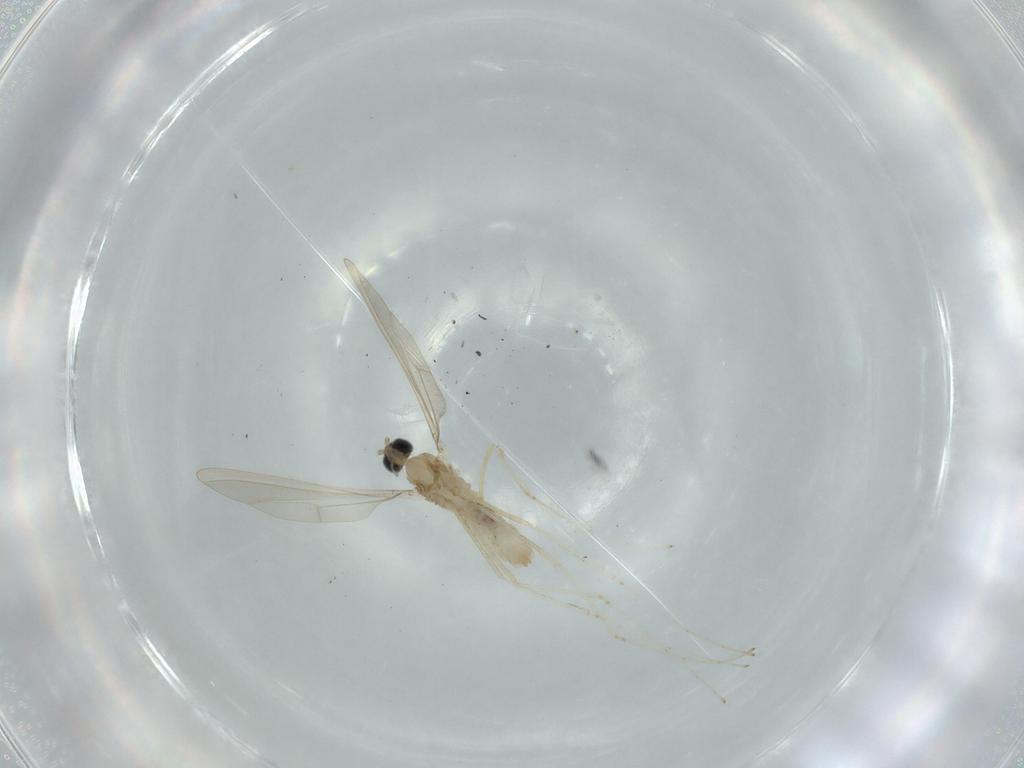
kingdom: Animalia
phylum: Arthropoda
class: Insecta
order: Diptera
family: Cecidomyiidae
